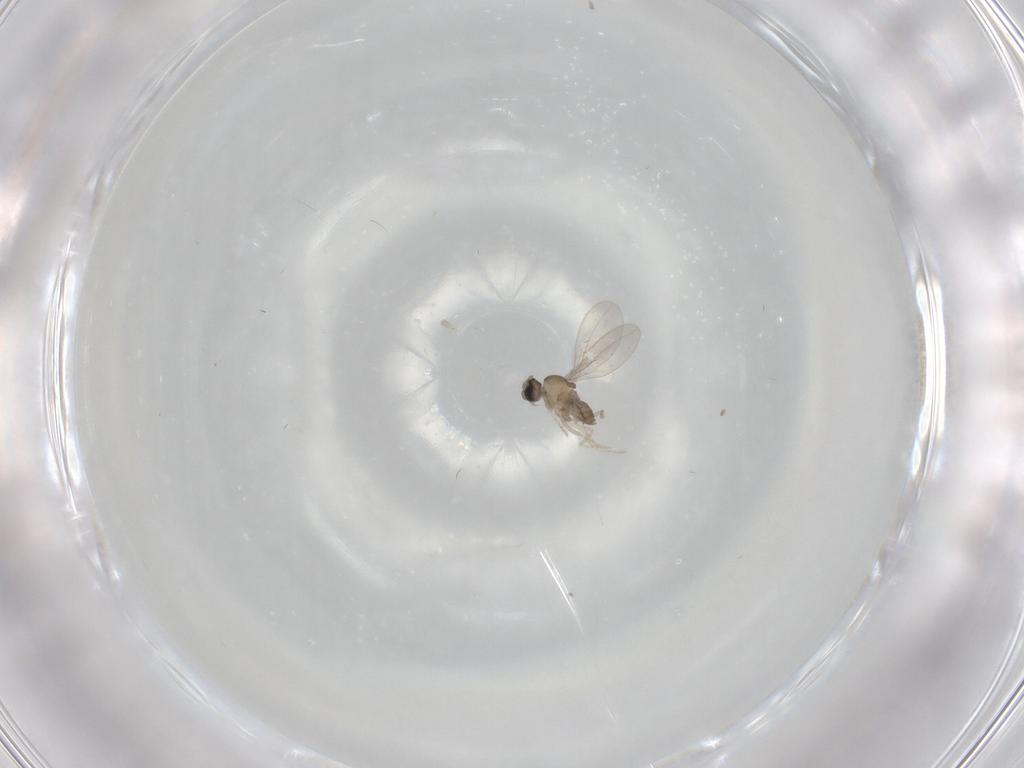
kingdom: Animalia
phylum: Arthropoda
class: Insecta
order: Diptera
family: Cecidomyiidae
